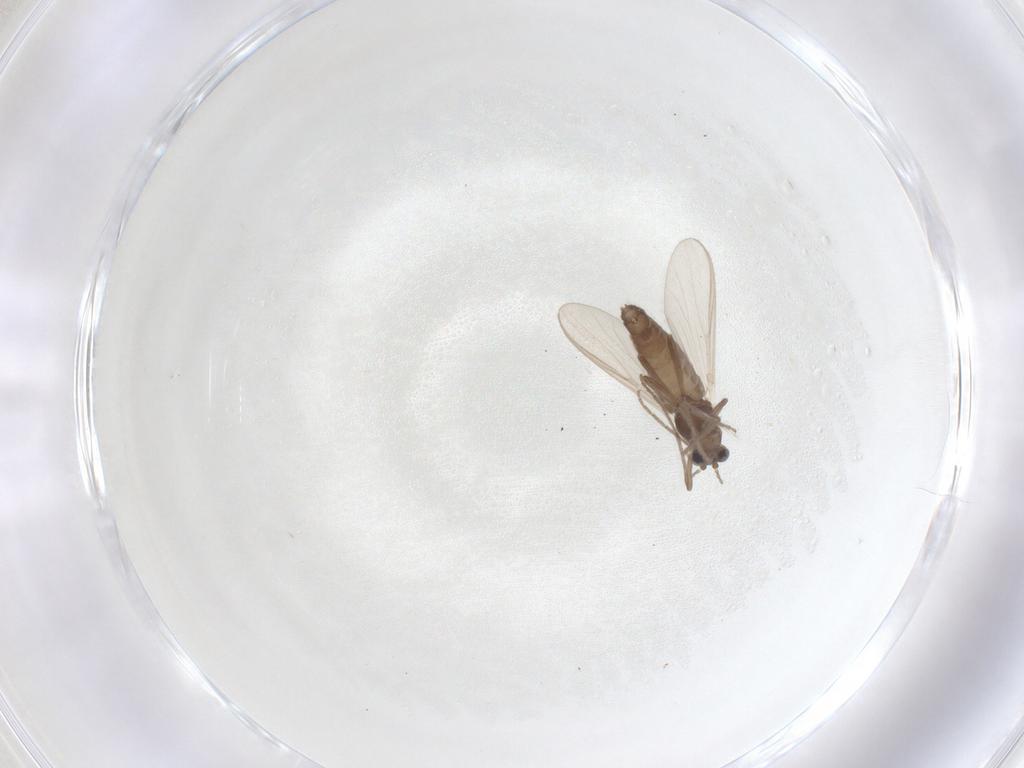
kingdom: Animalia
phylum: Arthropoda
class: Insecta
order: Diptera
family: Chironomidae
